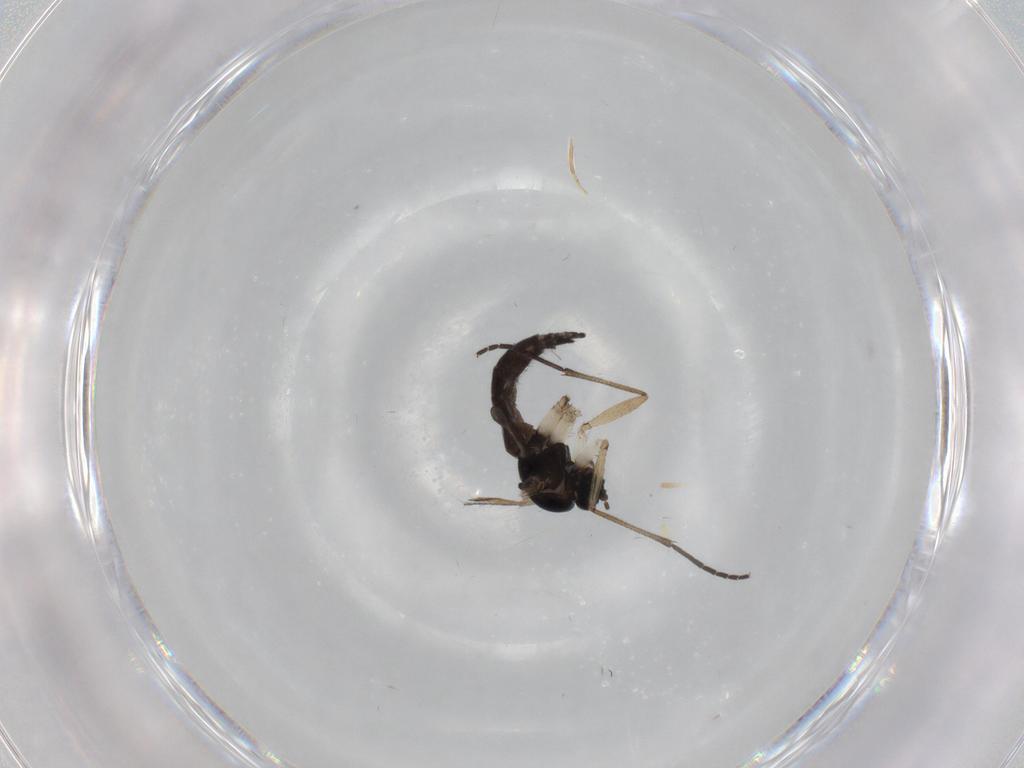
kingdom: Animalia
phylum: Arthropoda
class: Insecta
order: Diptera
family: Sciaridae
